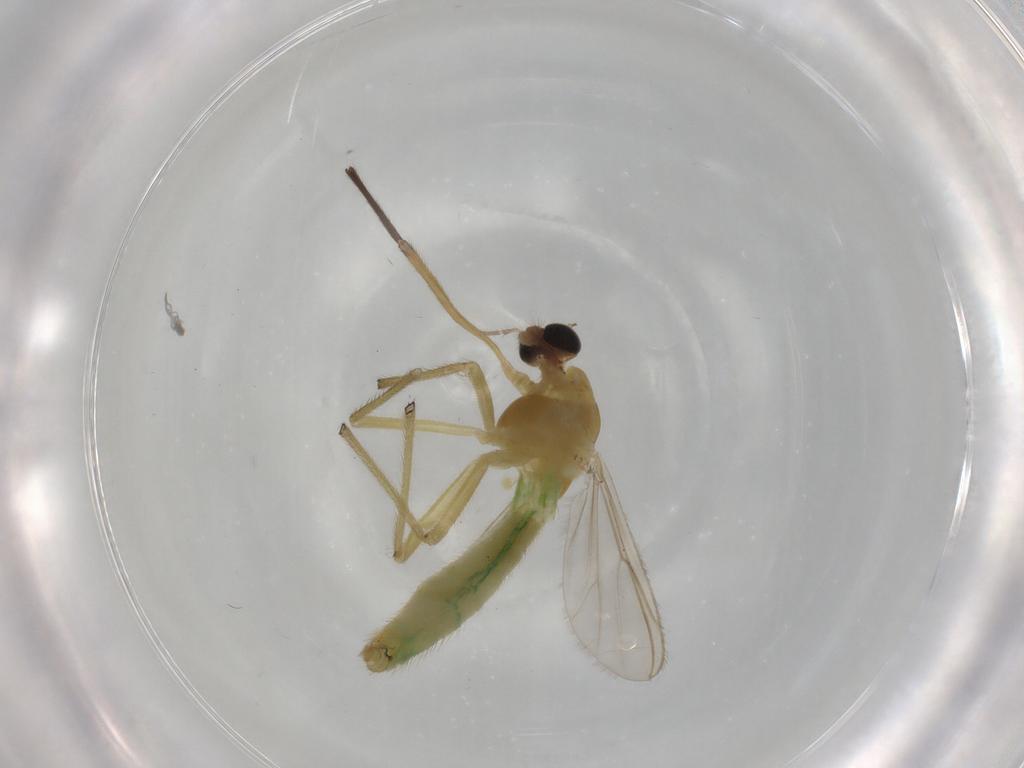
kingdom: Animalia
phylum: Arthropoda
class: Insecta
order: Diptera
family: Chironomidae
